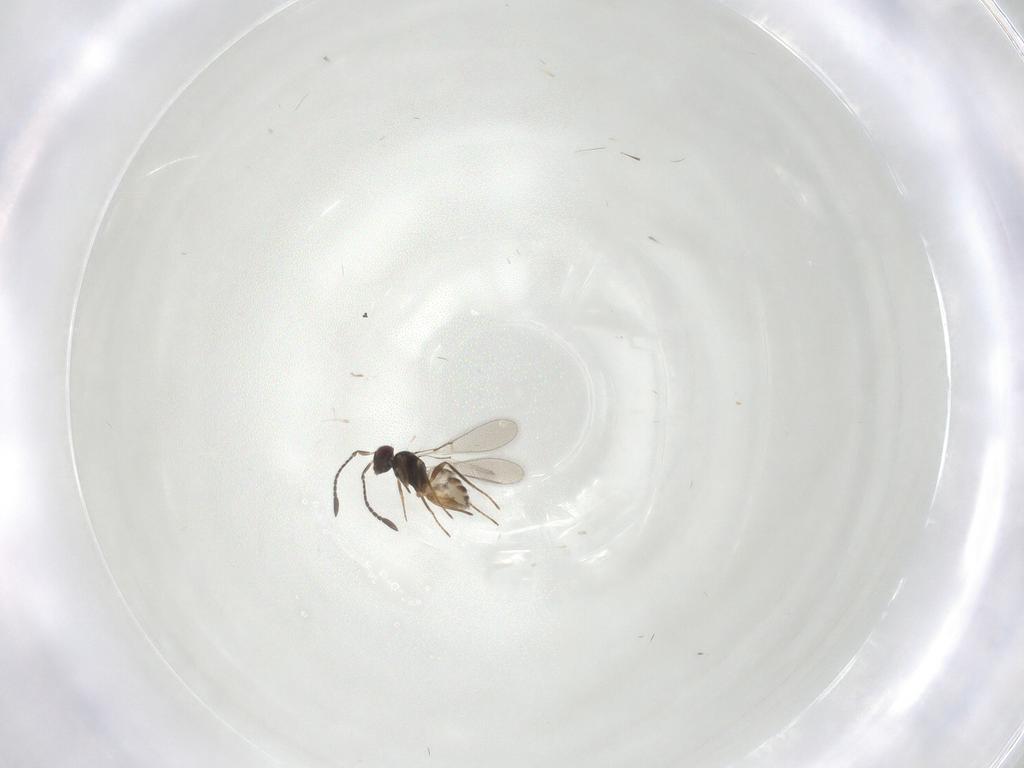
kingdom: Animalia
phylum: Arthropoda
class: Insecta
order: Hymenoptera
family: Mymaridae
